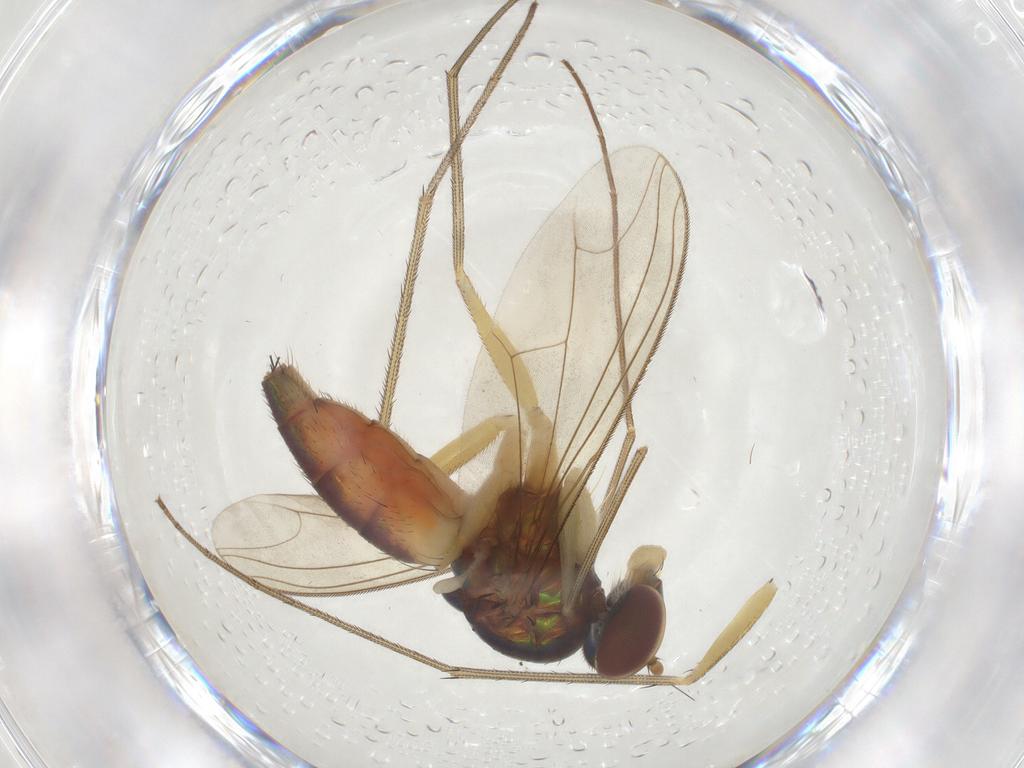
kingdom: Animalia
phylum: Arthropoda
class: Insecta
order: Diptera
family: Dolichopodidae
